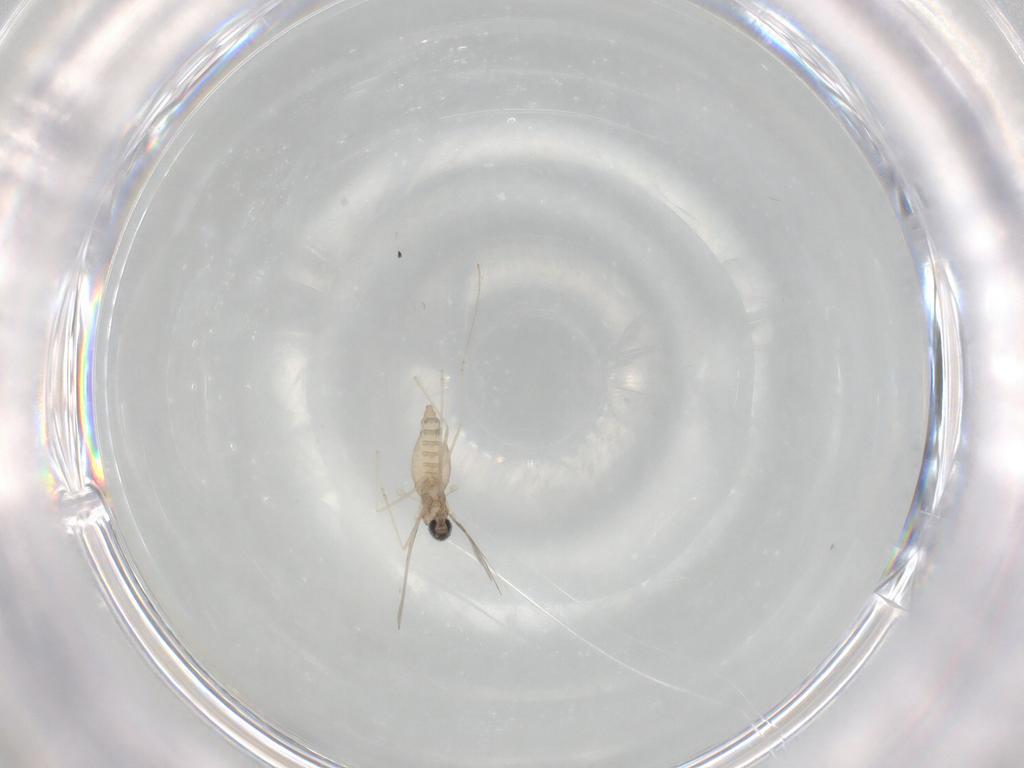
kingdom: Animalia
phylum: Arthropoda
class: Insecta
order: Diptera
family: Cecidomyiidae
